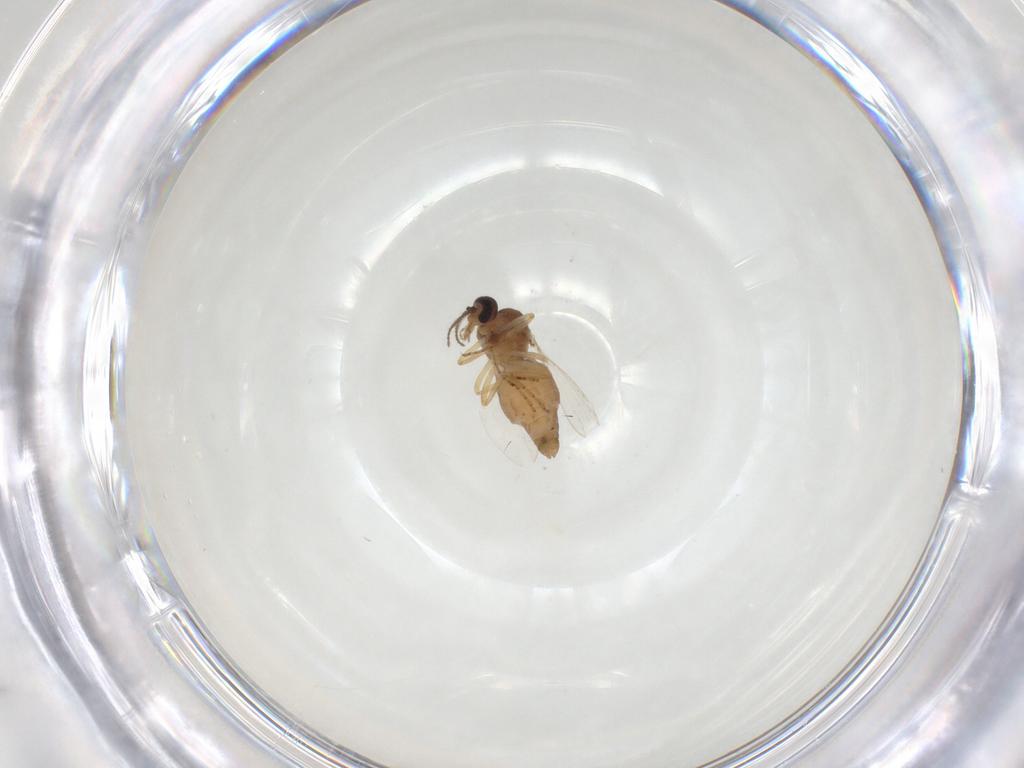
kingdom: Animalia
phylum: Arthropoda
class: Insecta
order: Diptera
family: Ceratopogonidae
